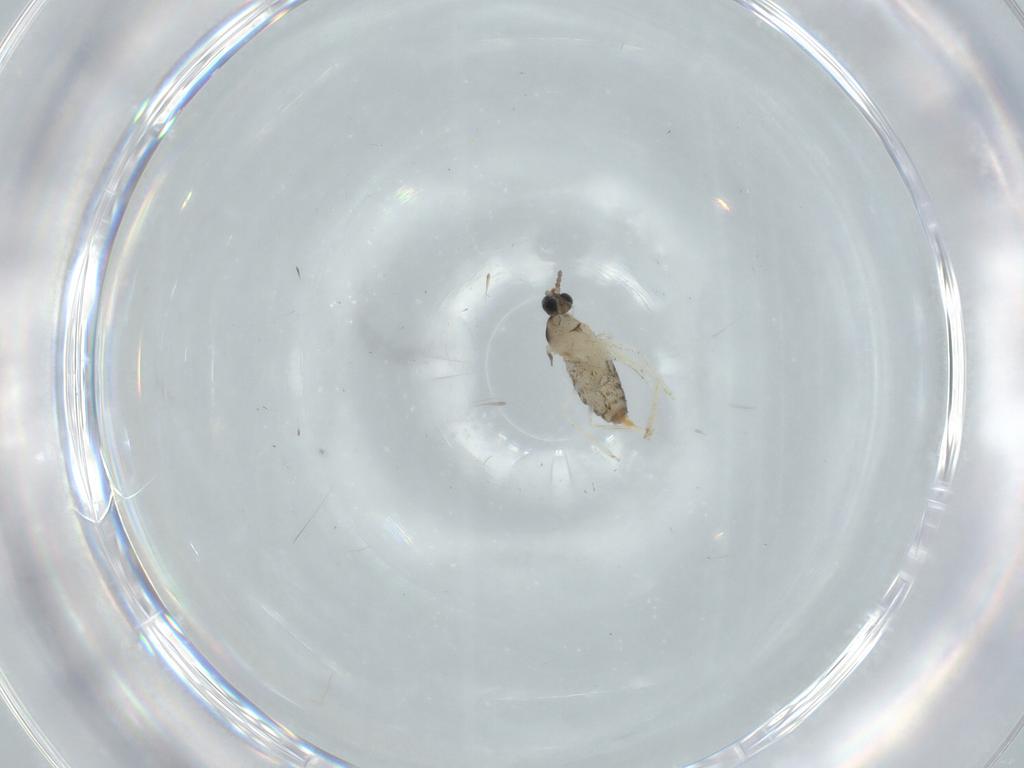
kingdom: Animalia
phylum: Arthropoda
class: Insecta
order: Diptera
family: Cecidomyiidae
